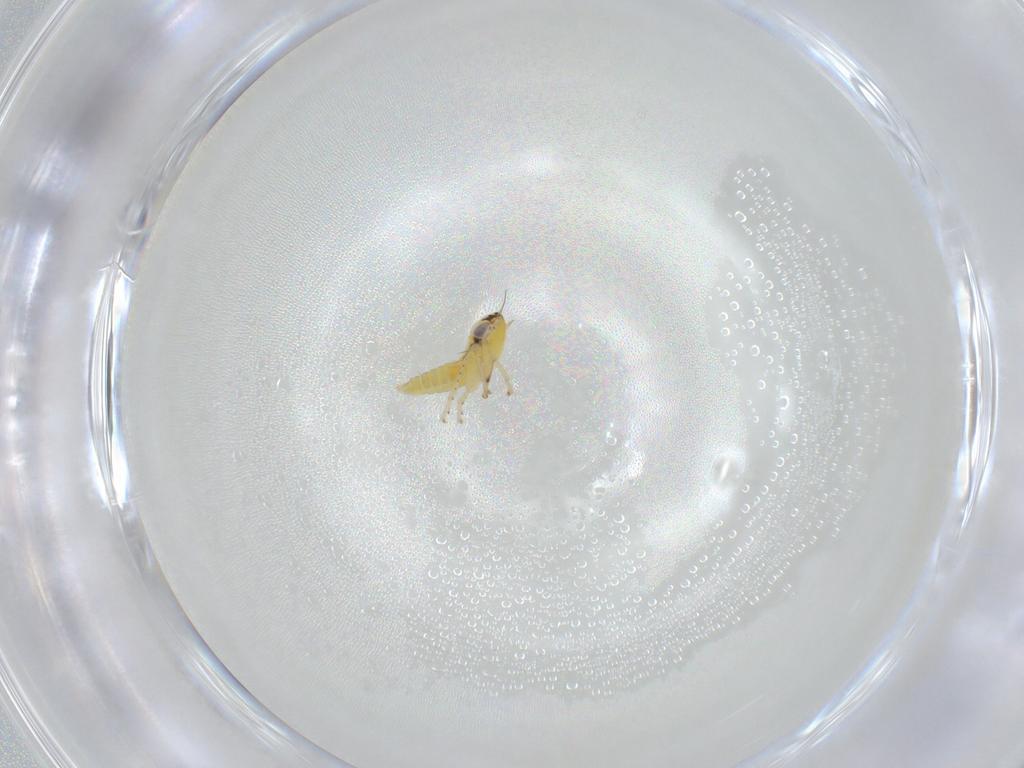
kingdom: Animalia
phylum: Arthropoda
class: Insecta
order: Hemiptera
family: Cicadellidae
